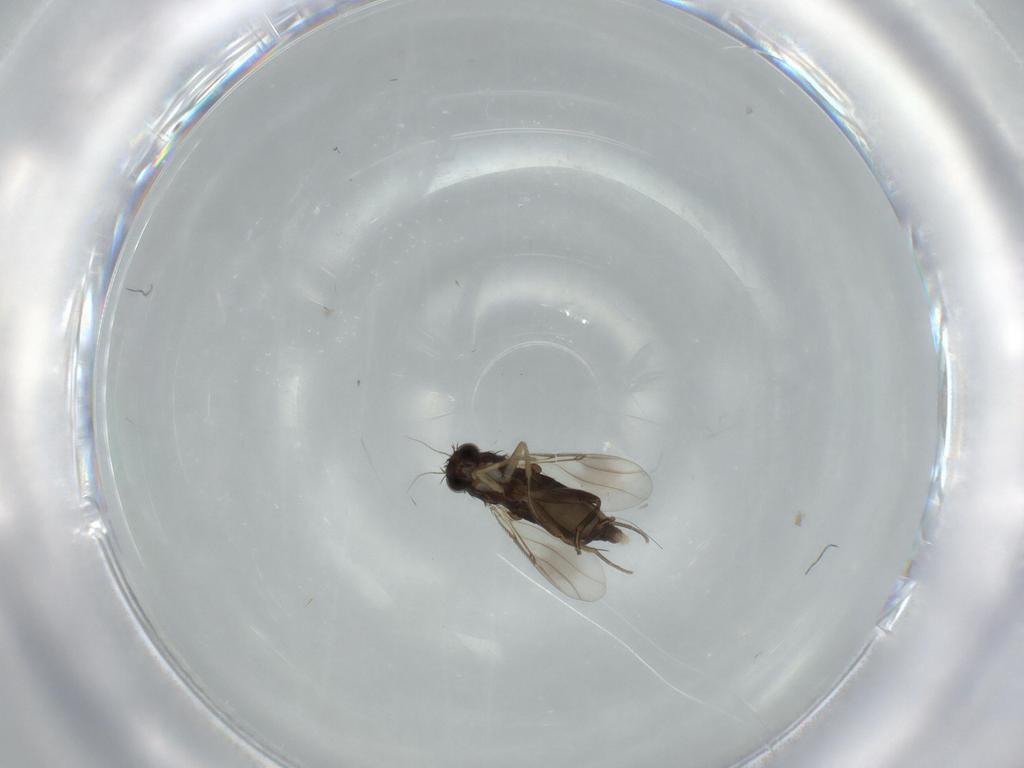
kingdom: Animalia
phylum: Arthropoda
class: Insecta
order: Diptera
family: Phoridae
